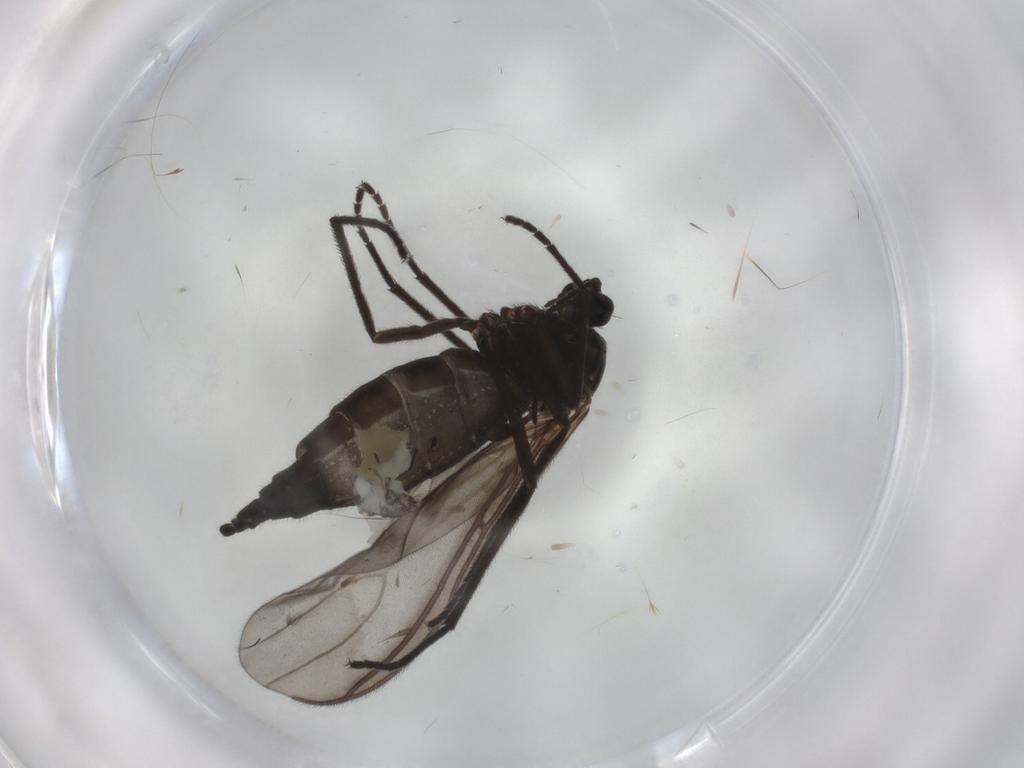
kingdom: Animalia
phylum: Arthropoda
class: Insecta
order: Diptera
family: Sciaridae
